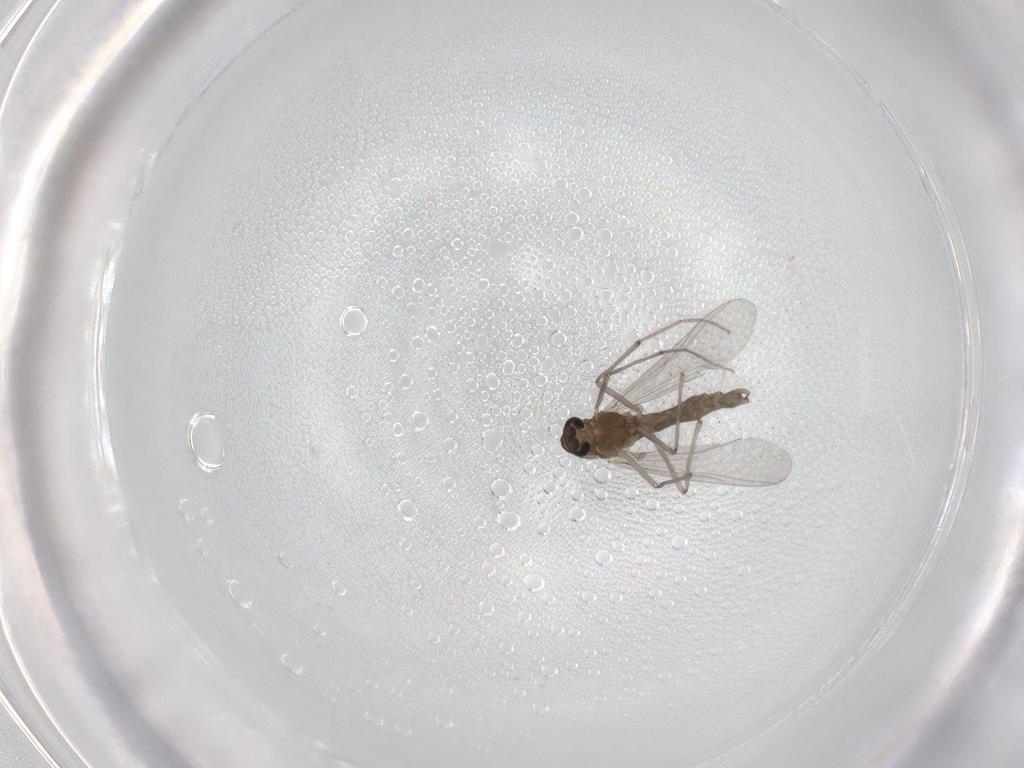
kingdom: Animalia
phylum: Arthropoda
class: Insecta
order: Diptera
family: Chironomidae
